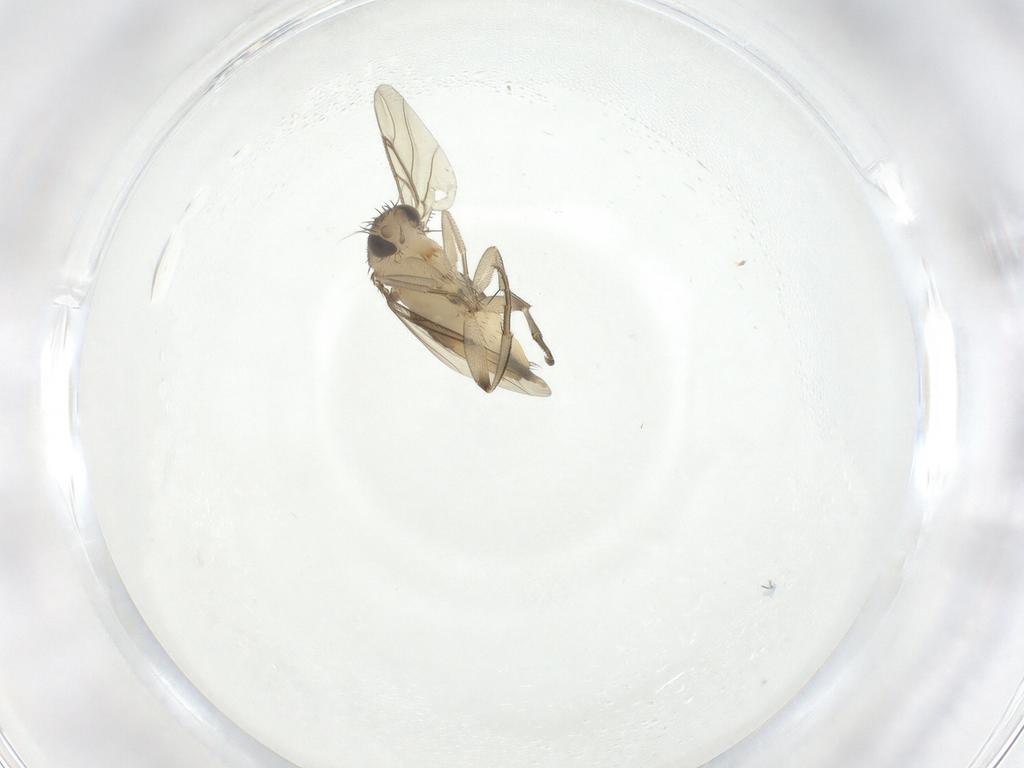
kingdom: Animalia
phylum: Arthropoda
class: Insecta
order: Diptera
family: Phoridae
